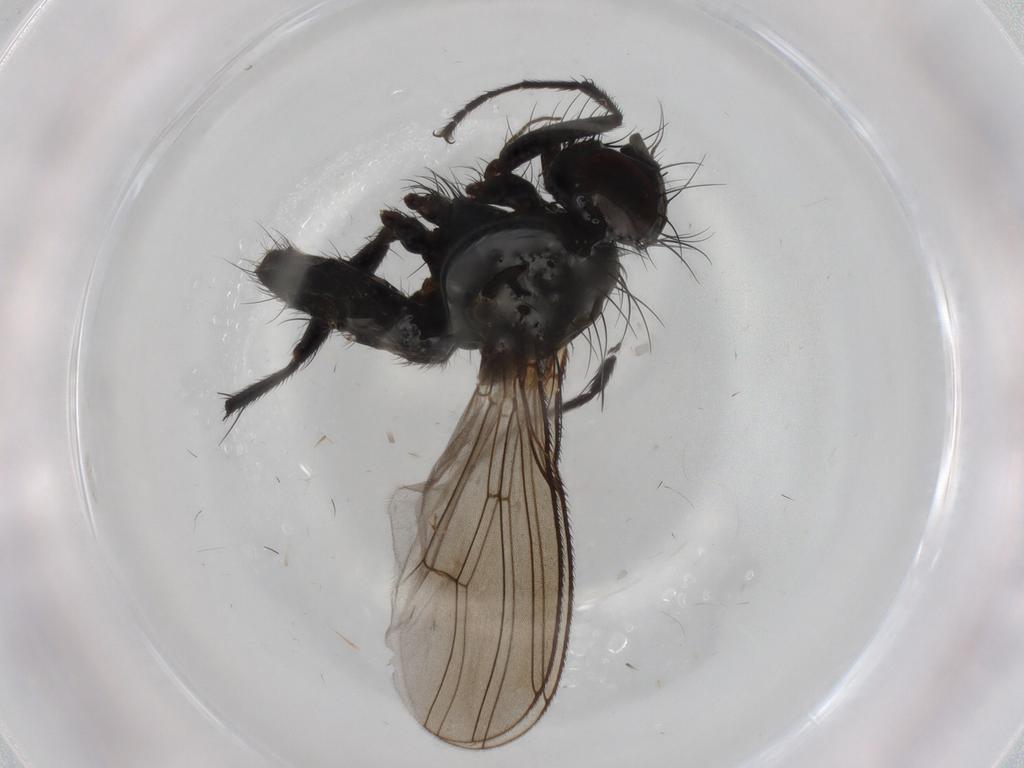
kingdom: Animalia
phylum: Arthropoda
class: Insecta
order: Diptera
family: Muscidae
